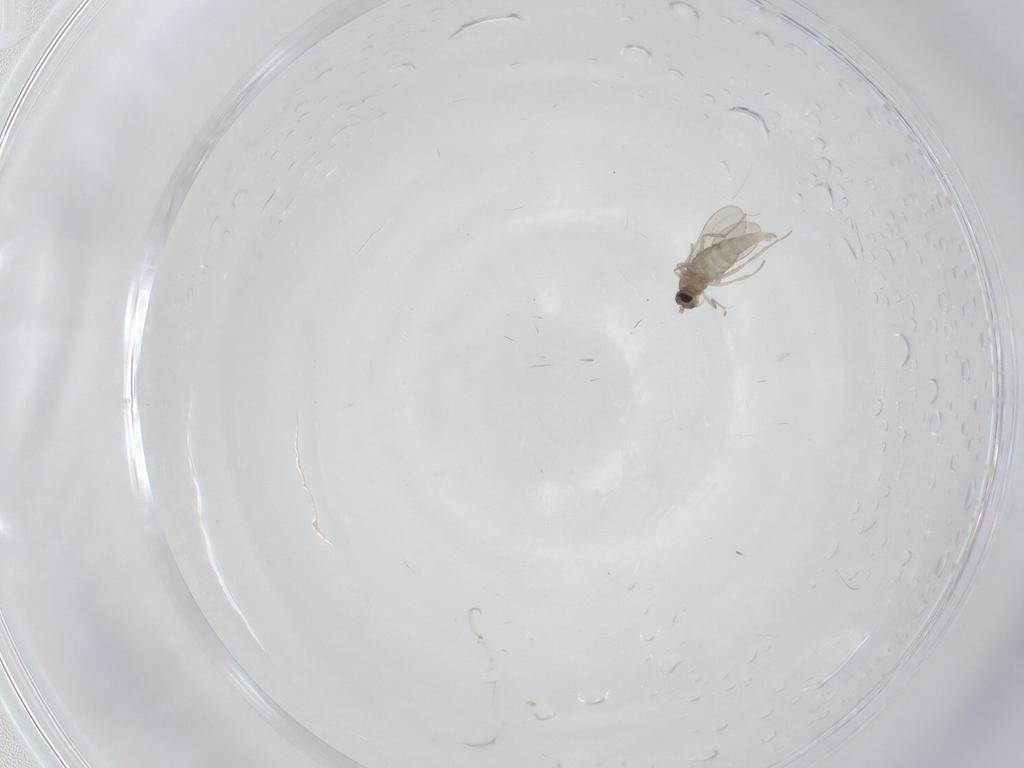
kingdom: Animalia
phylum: Arthropoda
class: Insecta
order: Diptera
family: Cecidomyiidae
